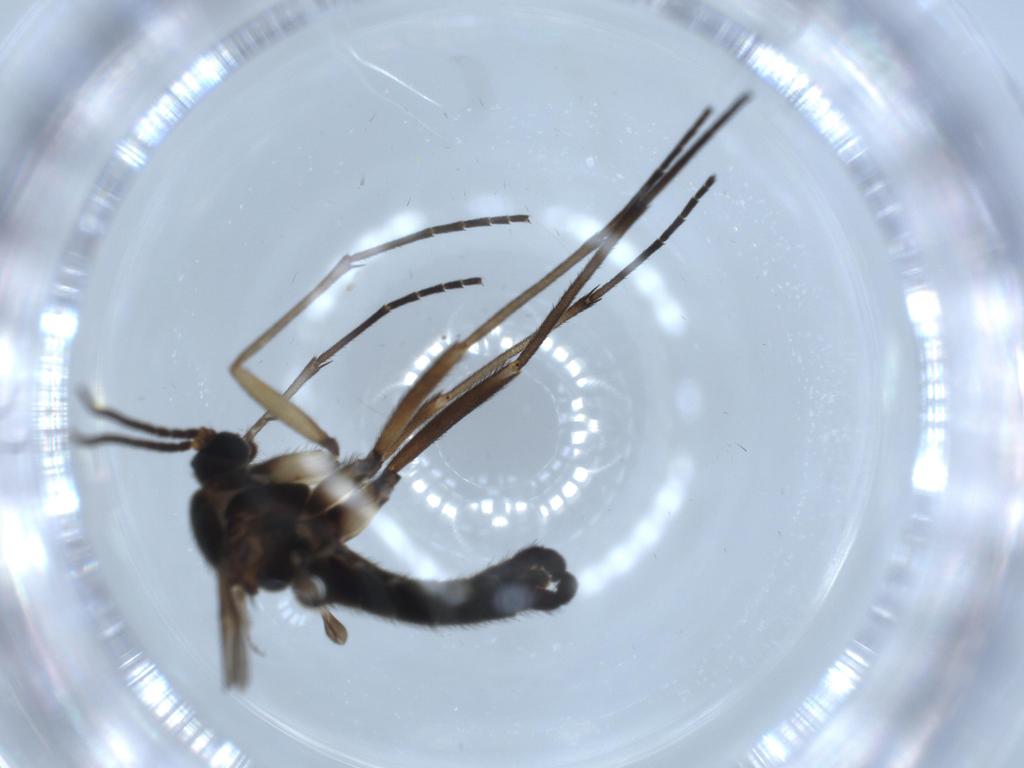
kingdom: Animalia
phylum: Arthropoda
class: Insecta
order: Diptera
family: Sciaridae
